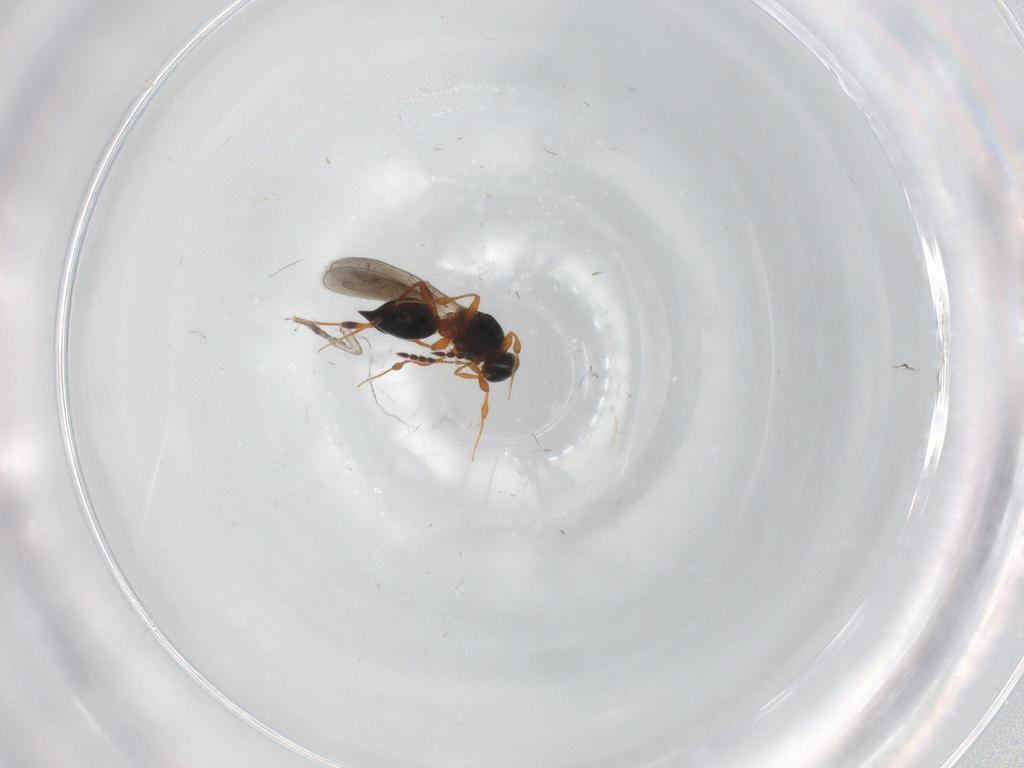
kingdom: Animalia
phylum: Arthropoda
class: Insecta
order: Hymenoptera
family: Platygastridae
